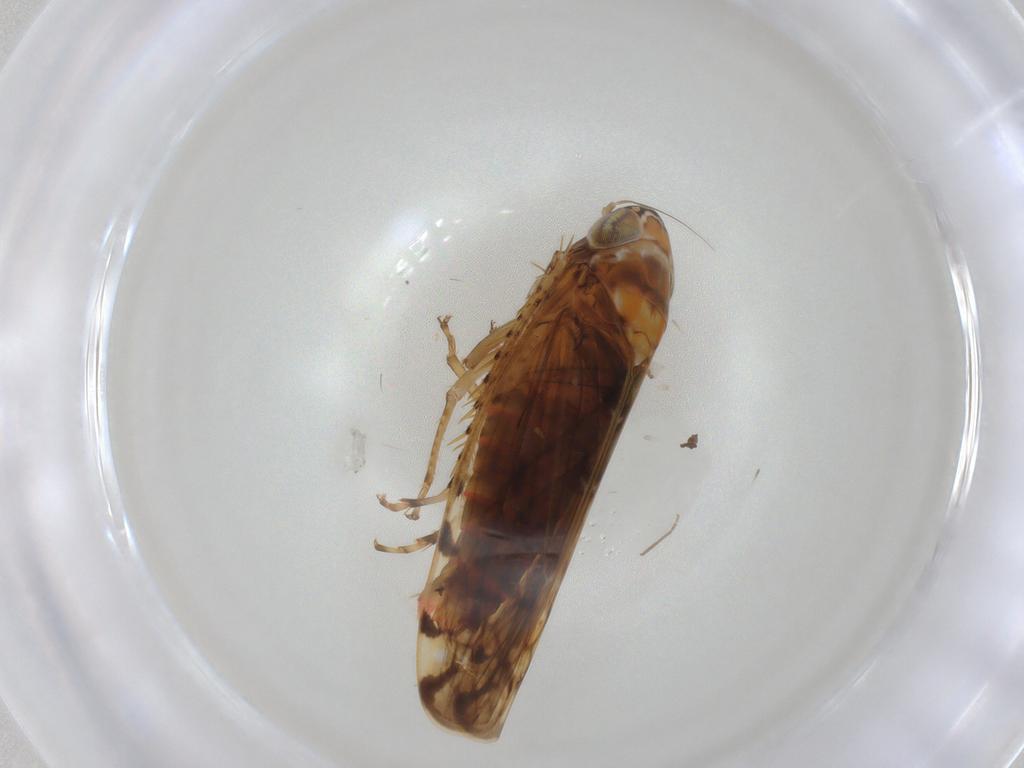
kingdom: Animalia
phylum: Arthropoda
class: Insecta
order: Hemiptera
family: Cicadellidae
